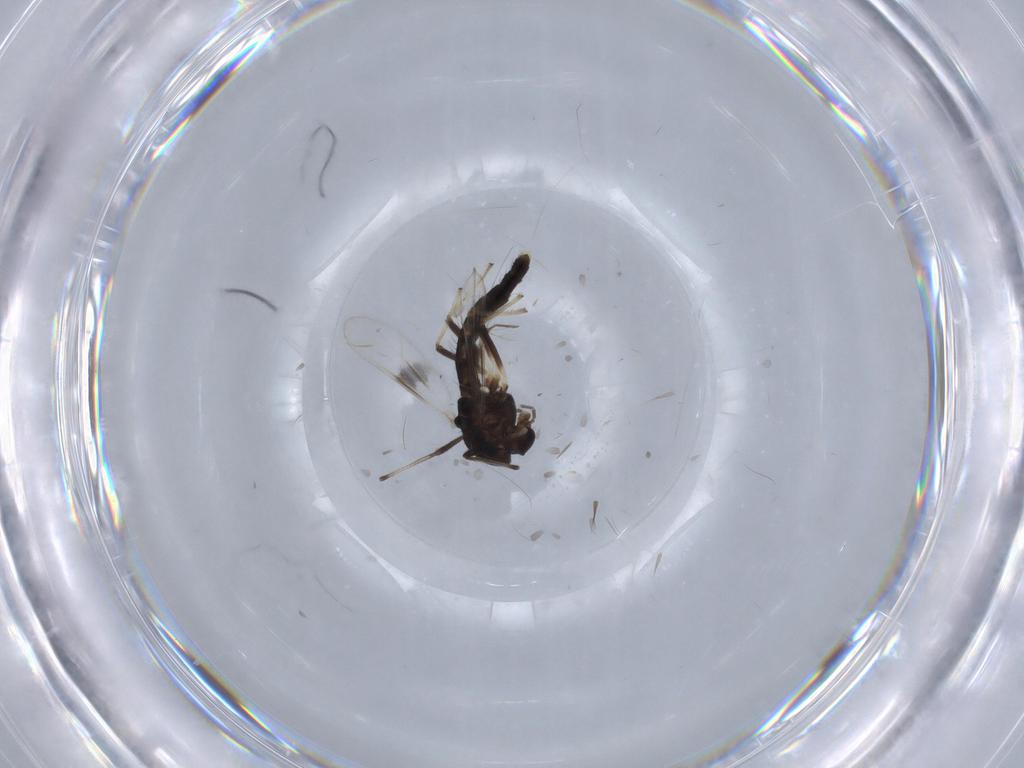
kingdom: Animalia
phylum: Arthropoda
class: Insecta
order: Diptera
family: Chironomidae
